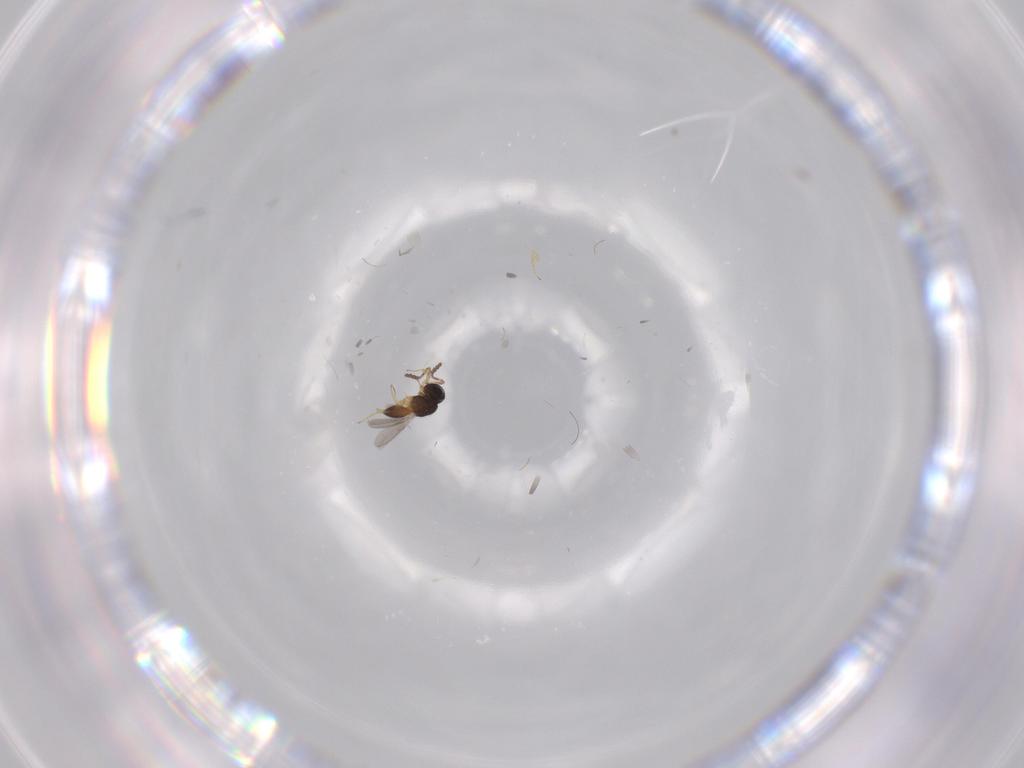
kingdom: Animalia
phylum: Arthropoda
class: Insecta
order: Hymenoptera
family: Scelionidae
